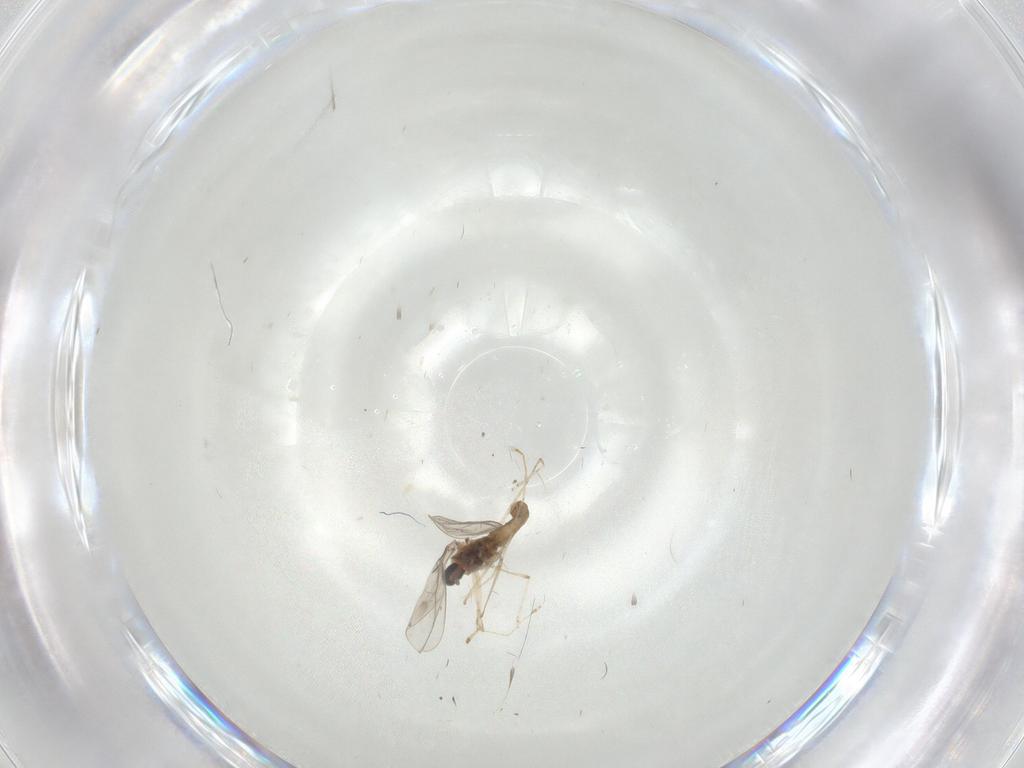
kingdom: Animalia
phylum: Arthropoda
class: Insecta
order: Diptera
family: Cecidomyiidae
